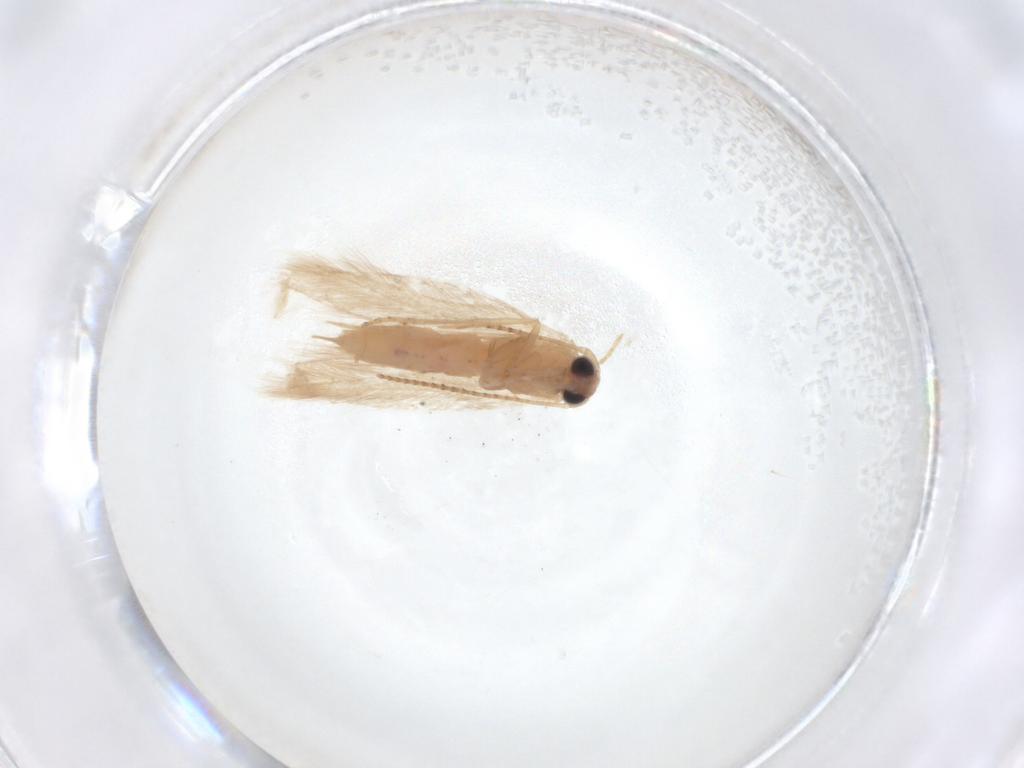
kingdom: Animalia
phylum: Arthropoda
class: Insecta
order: Lepidoptera
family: Bedelliidae
